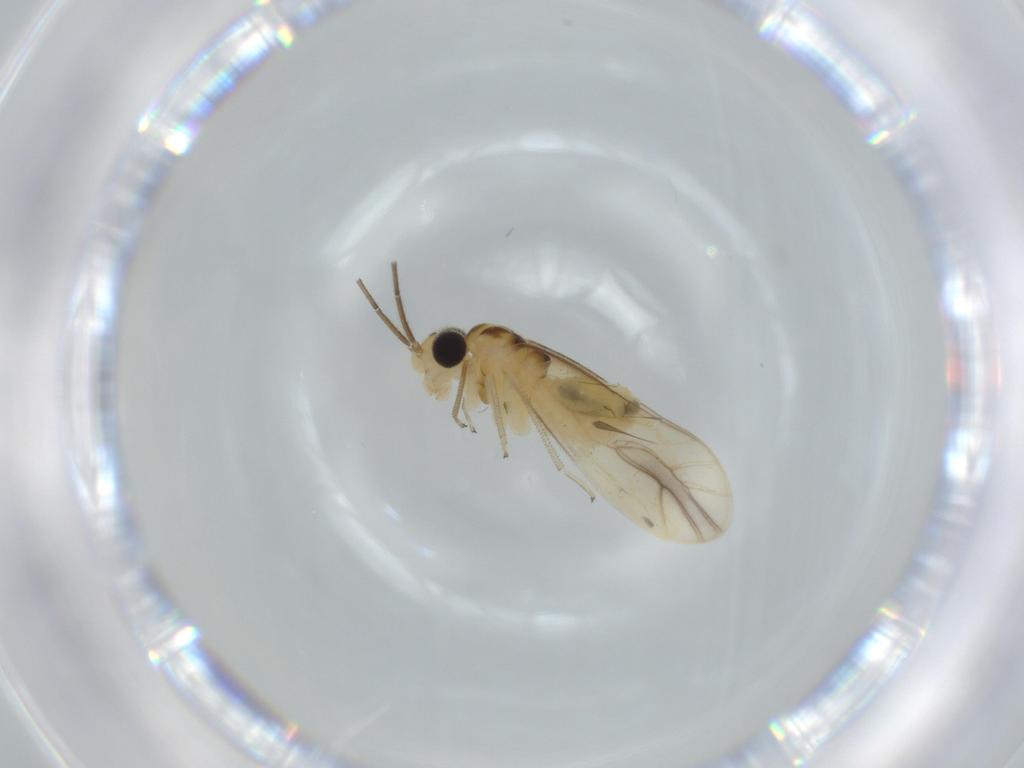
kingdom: Animalia
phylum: Arthropoda
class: Insecta
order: Psocodea
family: Caeciliusidae
